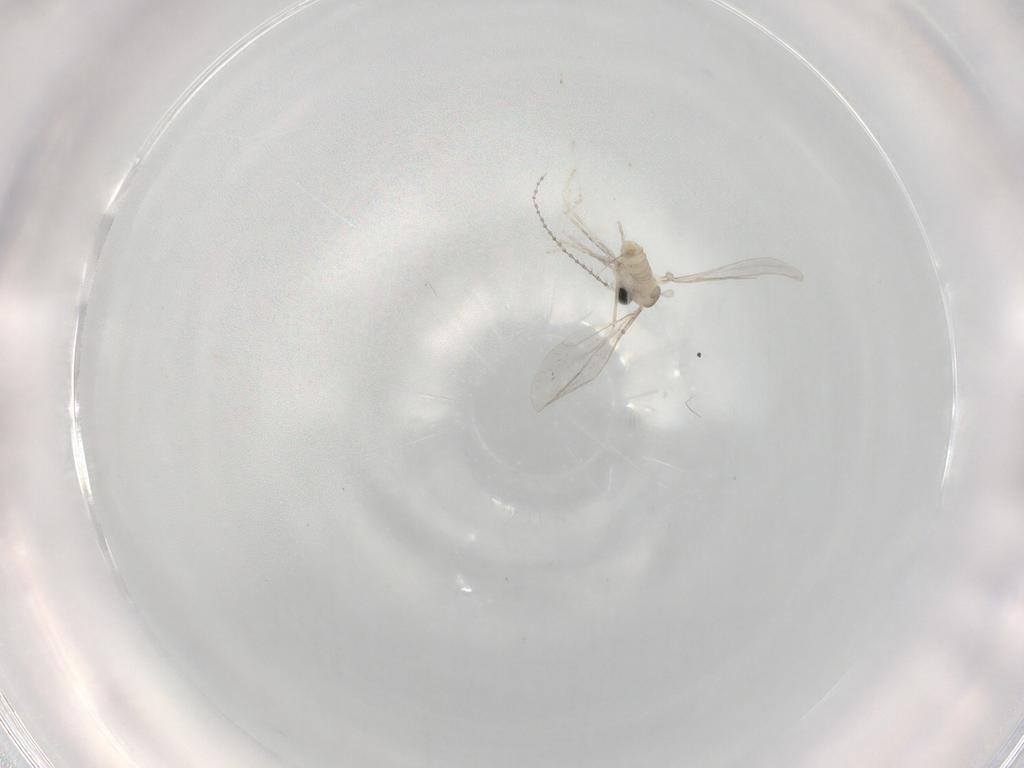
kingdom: Animalia
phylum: Arthropoda
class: Insecta
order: Diptera
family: Cecidomyiidae
